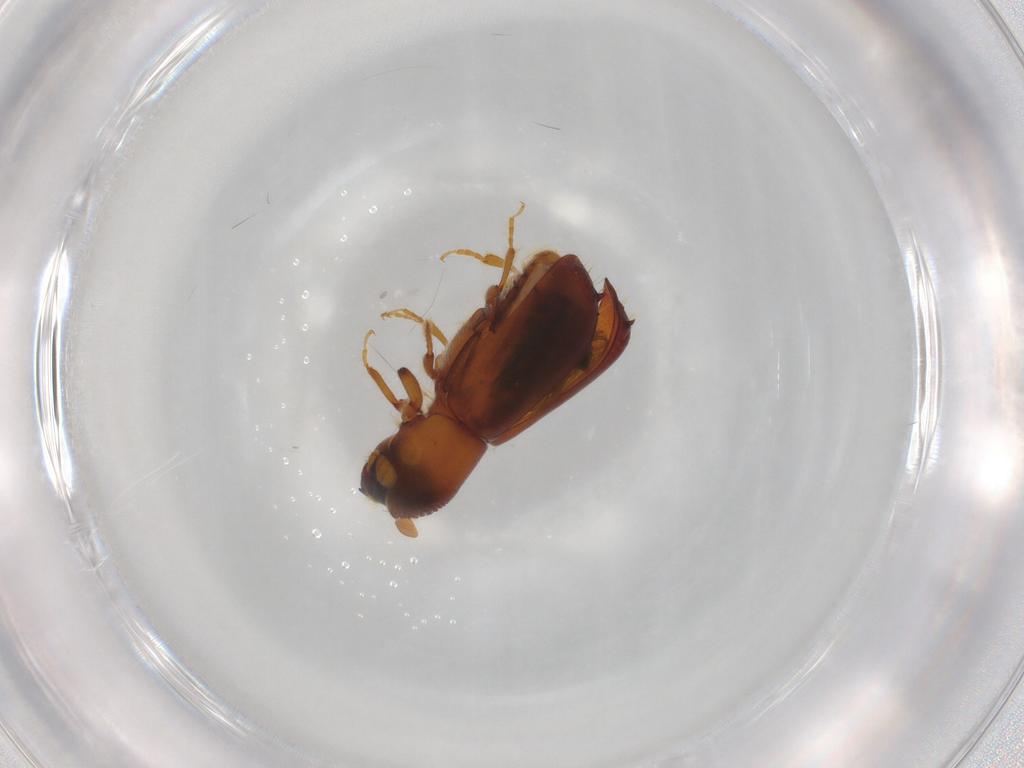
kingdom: Animalia
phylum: Arthropoda
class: Insecta
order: Coleoptera
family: Curculionidae
